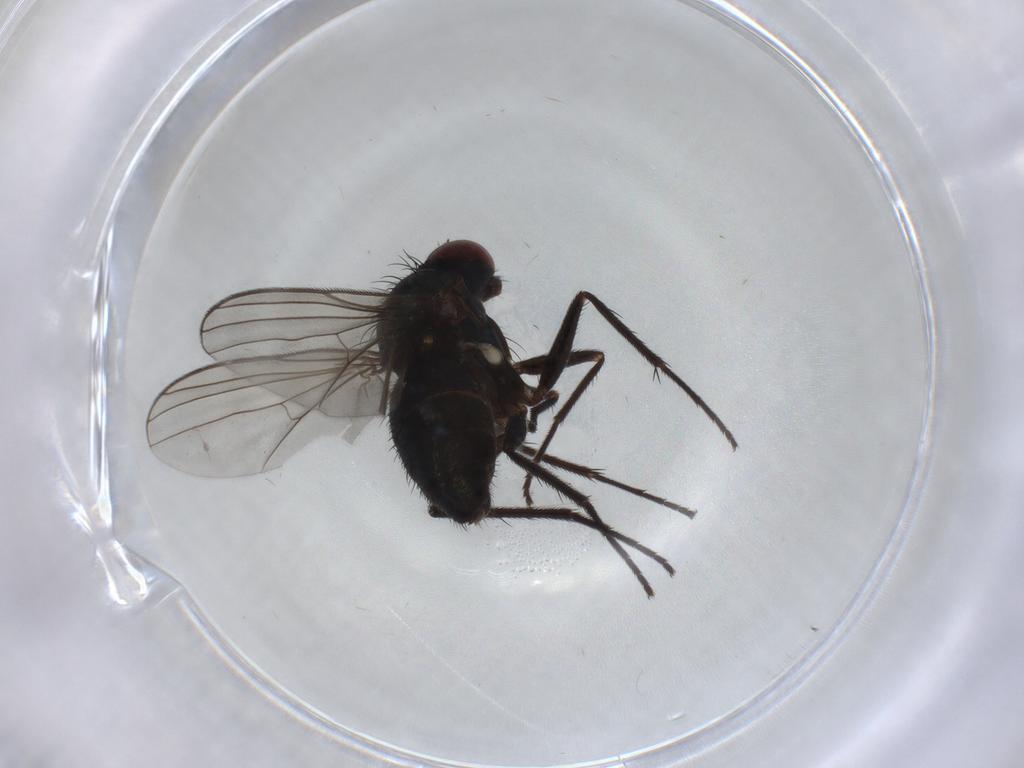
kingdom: Animalia
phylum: Arthropoda
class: Insecta
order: Diptera
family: Dolichopodidae
